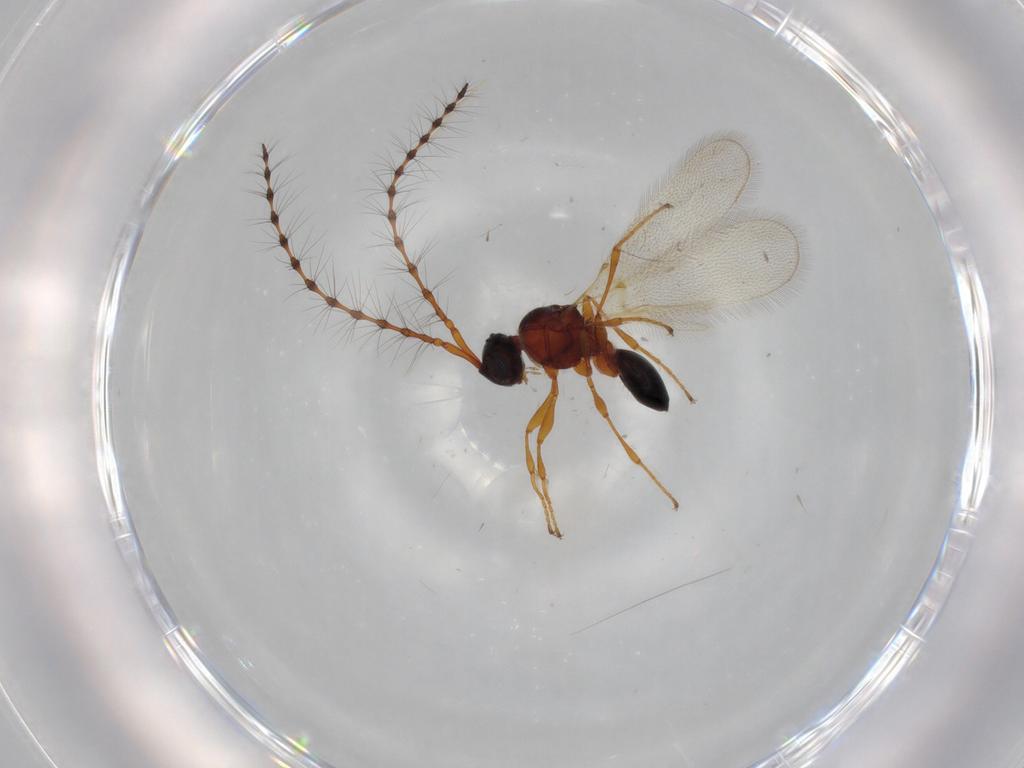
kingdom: Animalia
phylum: Arthropoda
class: Insecta
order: Hymenoptera
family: Diapriidae
